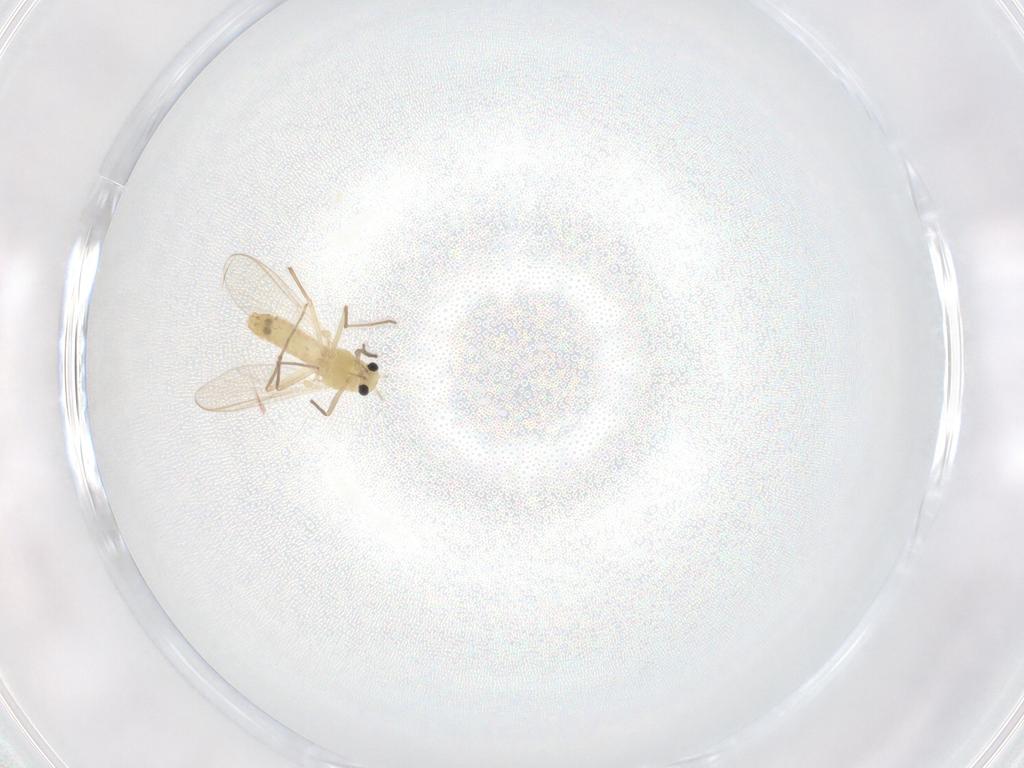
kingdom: Animalia
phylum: Arthropoda
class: Insecta
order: Diptera
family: Chironomidae
